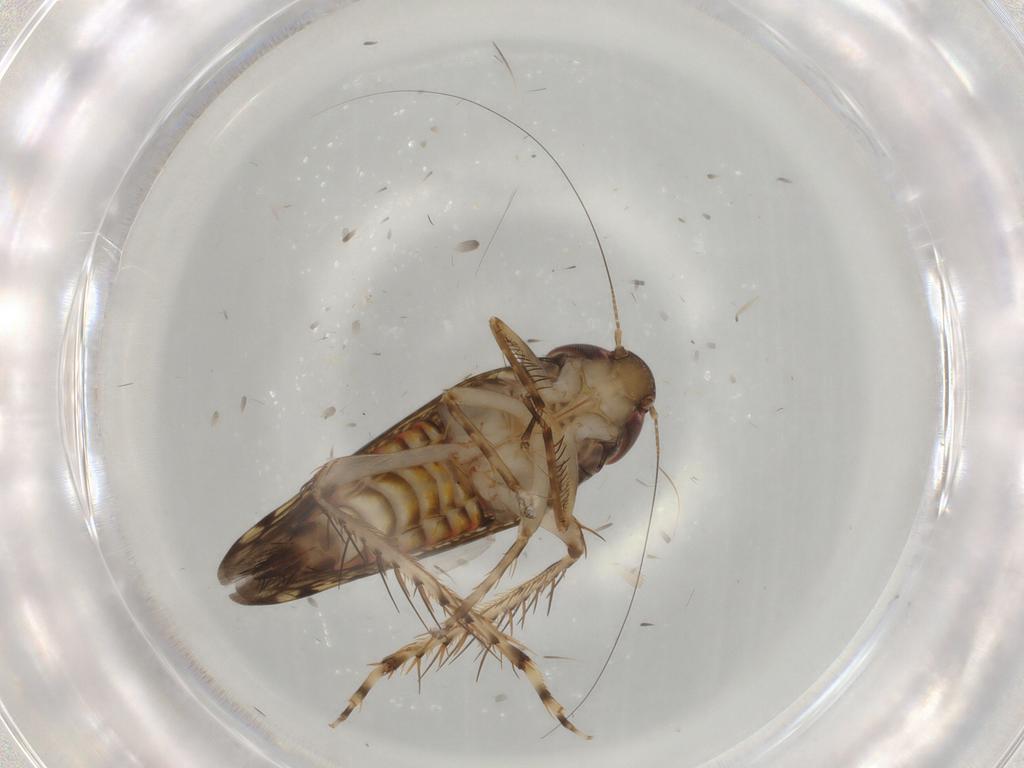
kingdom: Animalia
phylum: Arthropoda
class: Insecta
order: Hemiptera
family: Cicadellidae
